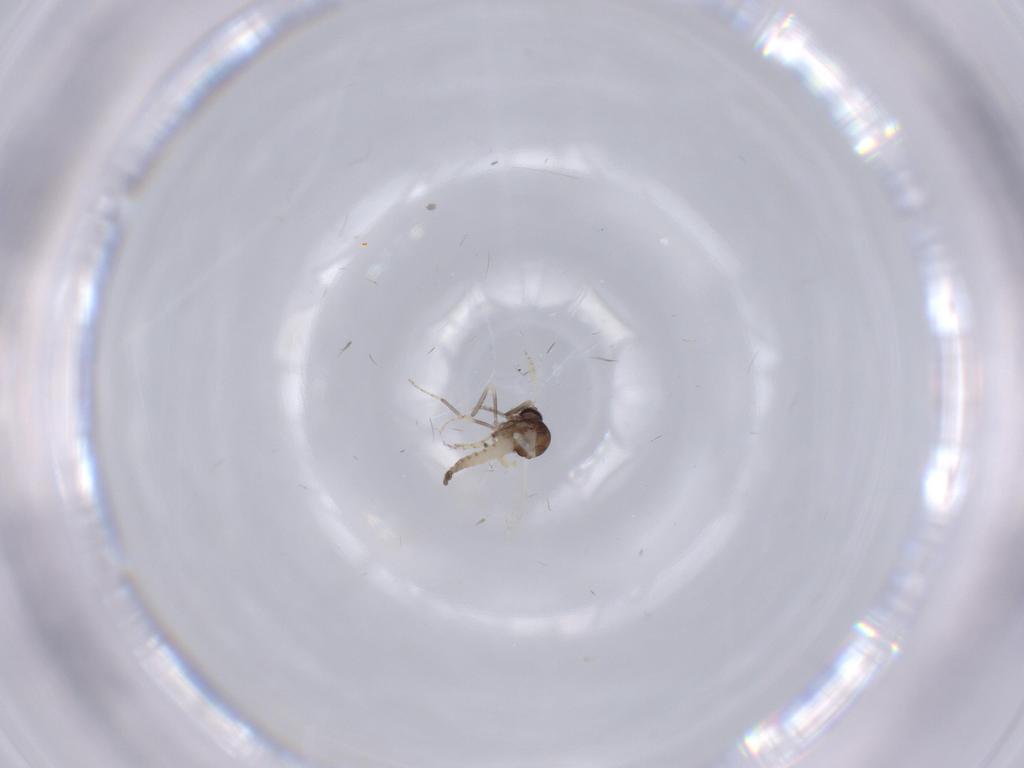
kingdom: Animalia
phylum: Arthropoda
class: Insecta
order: Diptera
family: Ceratopogonidae
